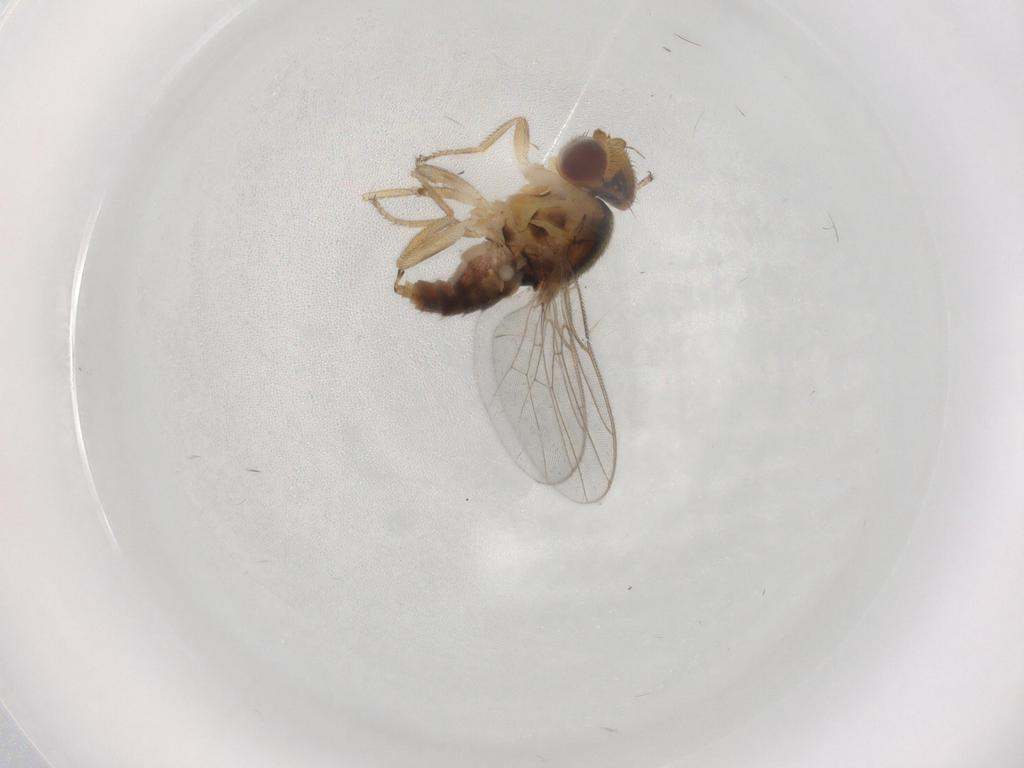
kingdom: Animalia
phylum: Arthropoda
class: Insecta
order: Diptera
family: Chloropidae
